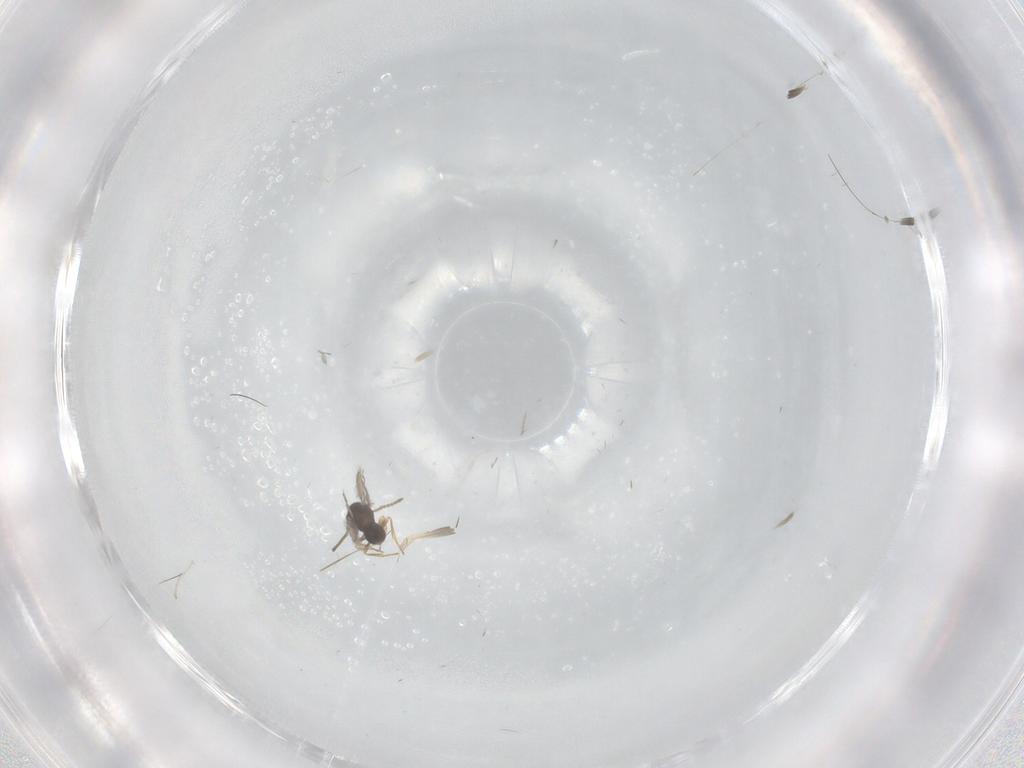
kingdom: Animalia
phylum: Arthropoda
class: Insecta
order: Diptera
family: Cecidomyiidae
